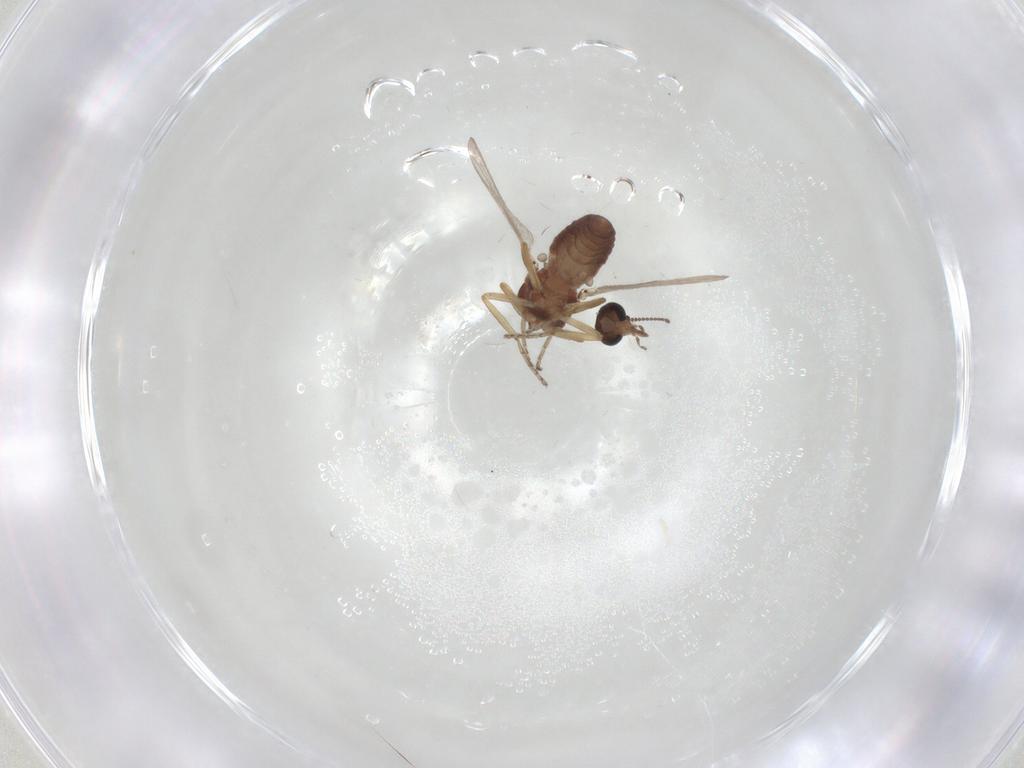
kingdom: Animalia
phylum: Arthropoda
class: Insecta
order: Diptera
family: Ceratopogonidae
